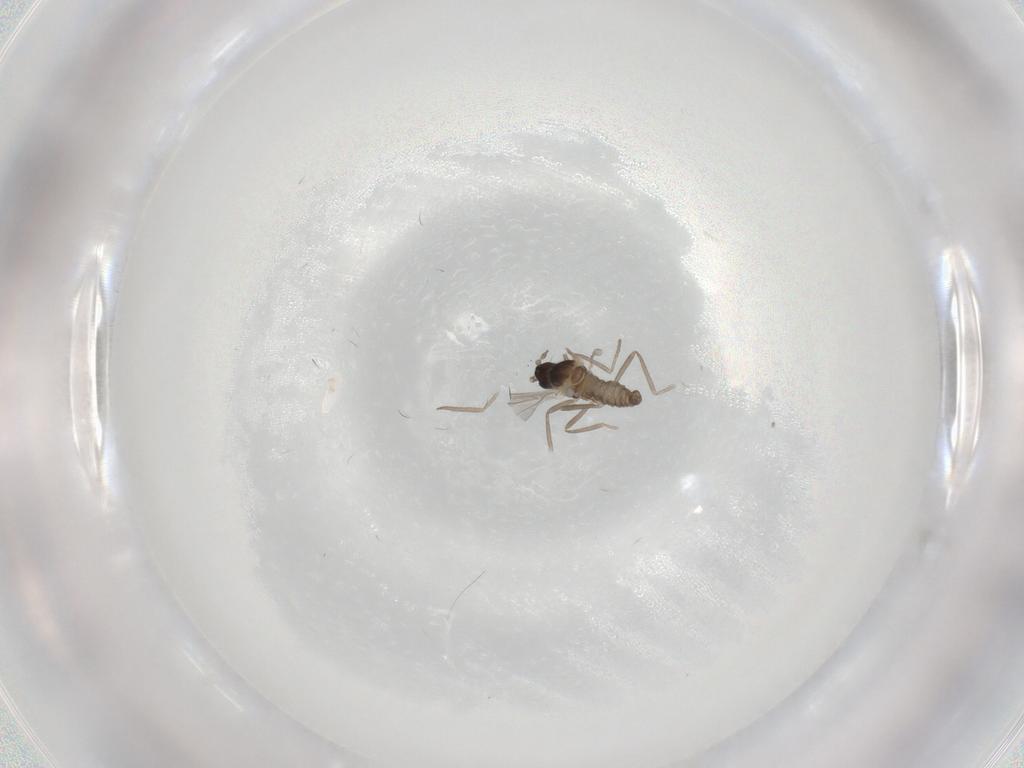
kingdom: Animalia
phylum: Arthropoda
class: Insecta
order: Diptera
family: Cecidomyiidae
